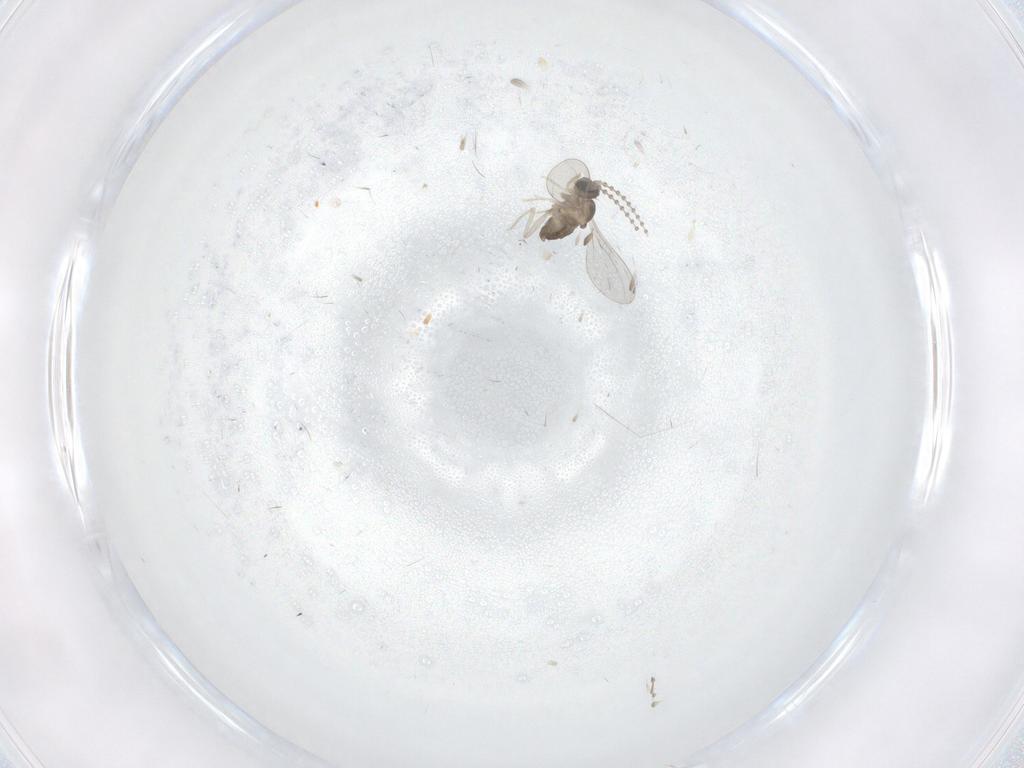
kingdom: Animalia
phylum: Arthropoda
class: Insecta
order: Diptera
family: Cecidomyiidae
